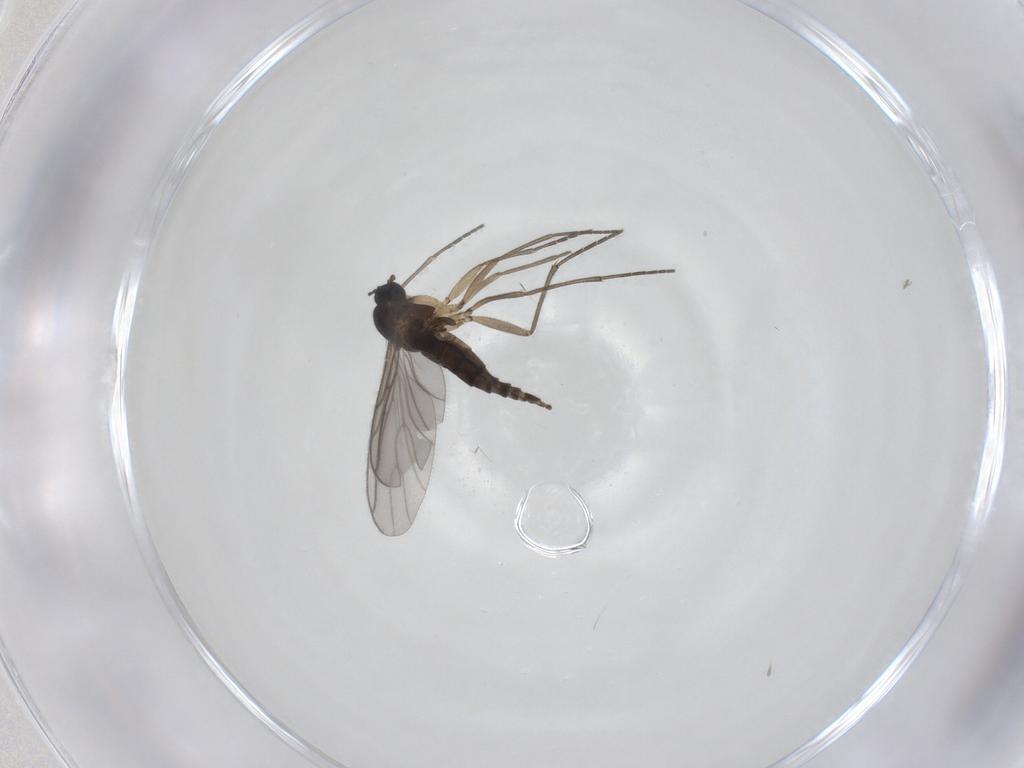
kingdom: Animalia
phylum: Arthropoda
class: Insecta
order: Diptera
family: Sciaridae
